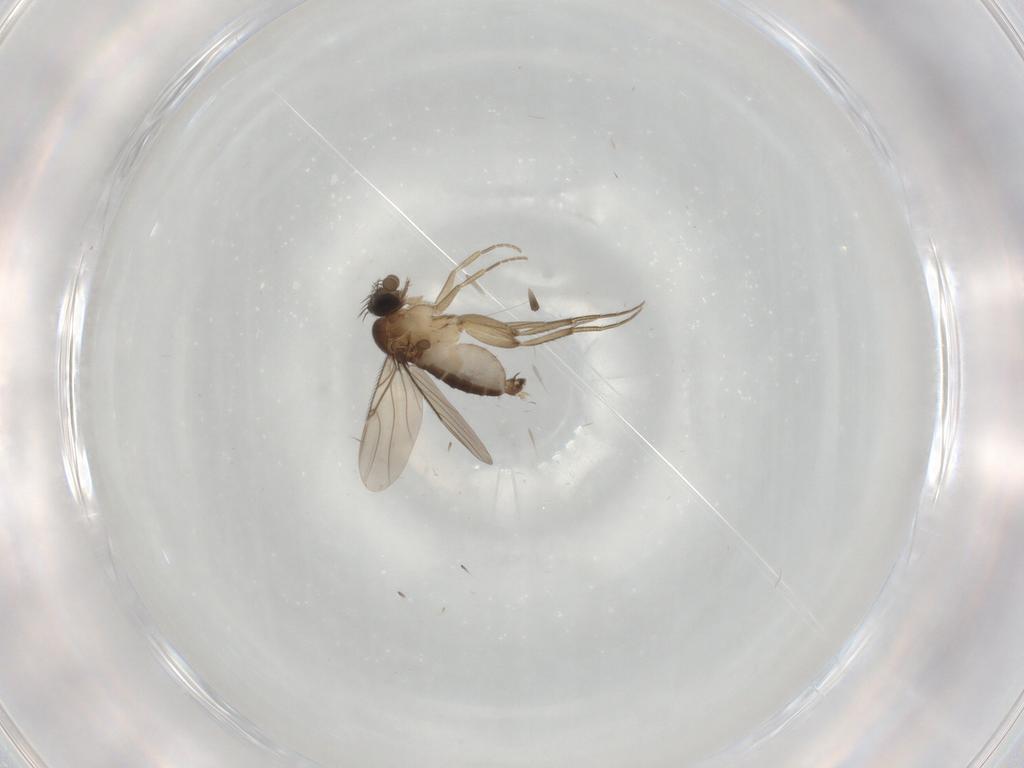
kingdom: Animalia
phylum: Arthropoda
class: Insecta
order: Diptera
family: Phoridae
